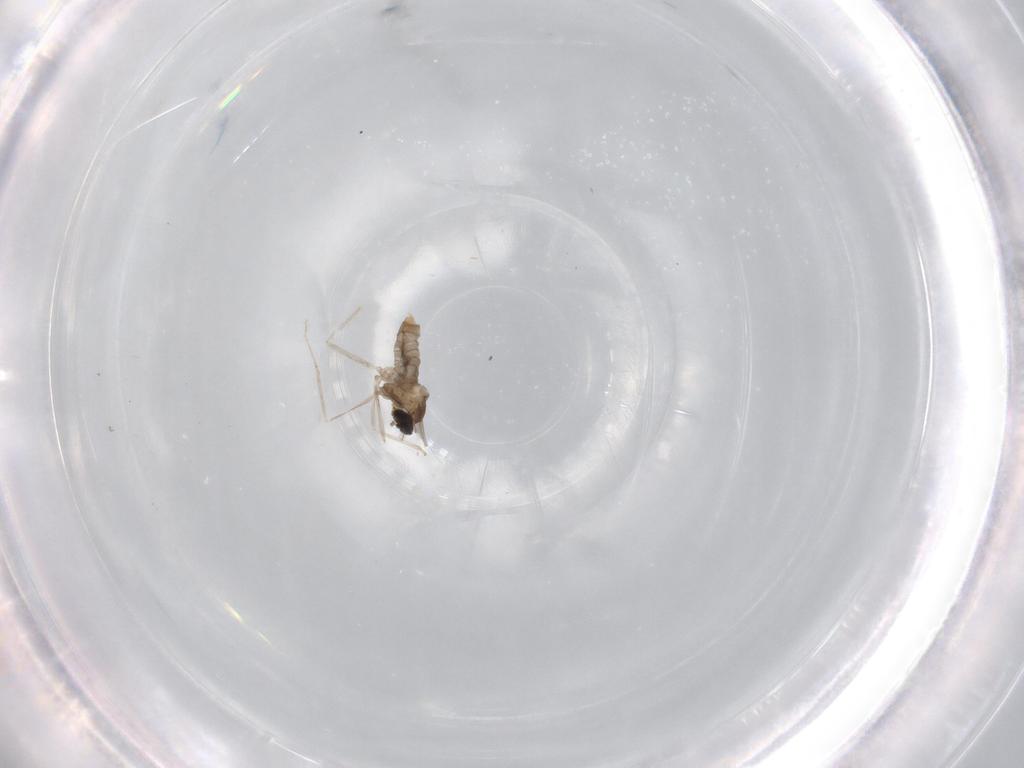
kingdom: Animalia
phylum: Arthropoda
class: Insecta
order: Diptera
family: Cecidomyiidae
